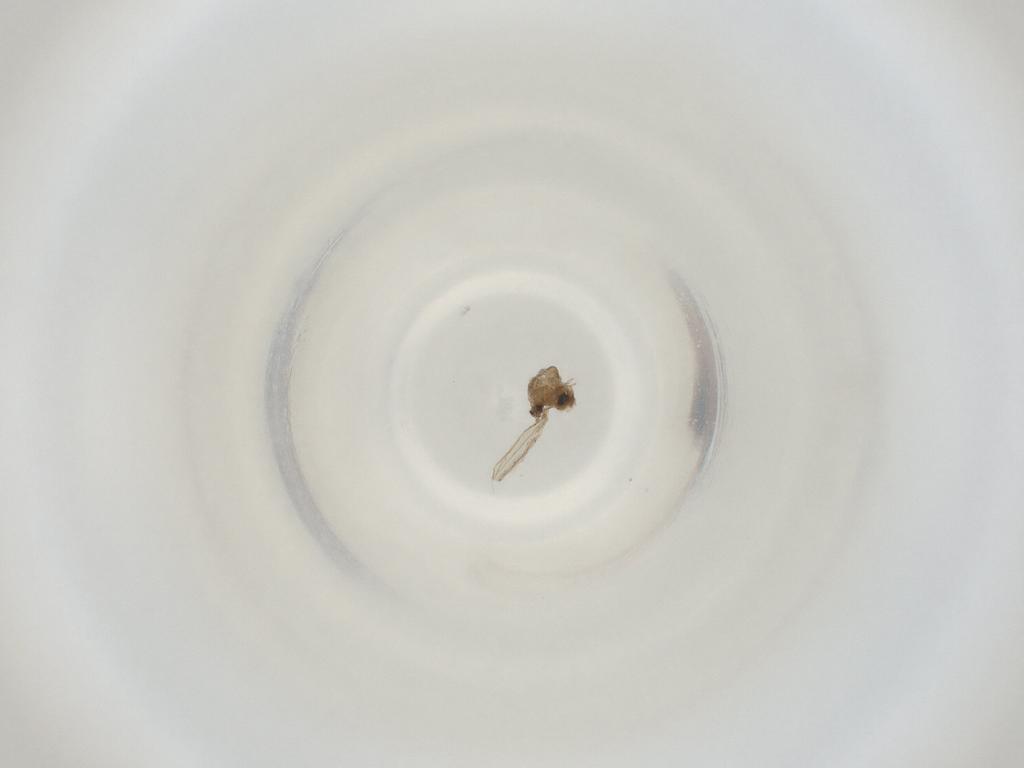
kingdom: Animalia
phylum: Arthropoda
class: Insecta
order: Diptera
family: Cecidomyiidae
